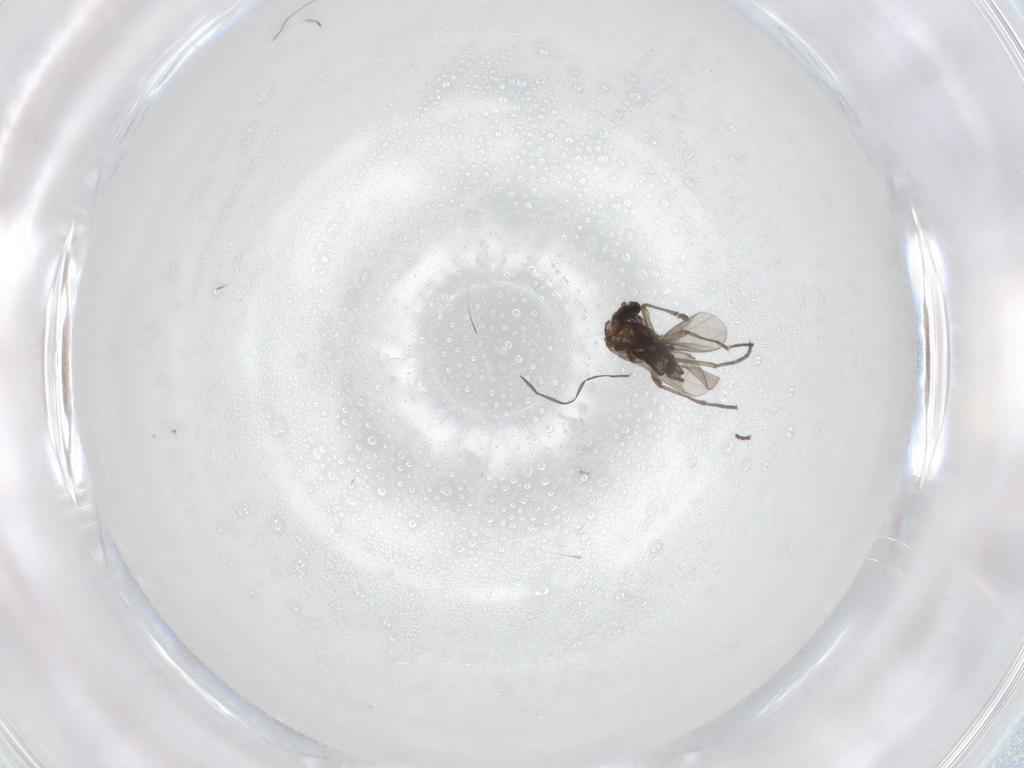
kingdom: Animalia
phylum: Arthropoda
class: Insecta
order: Diptera
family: Sciaridae
